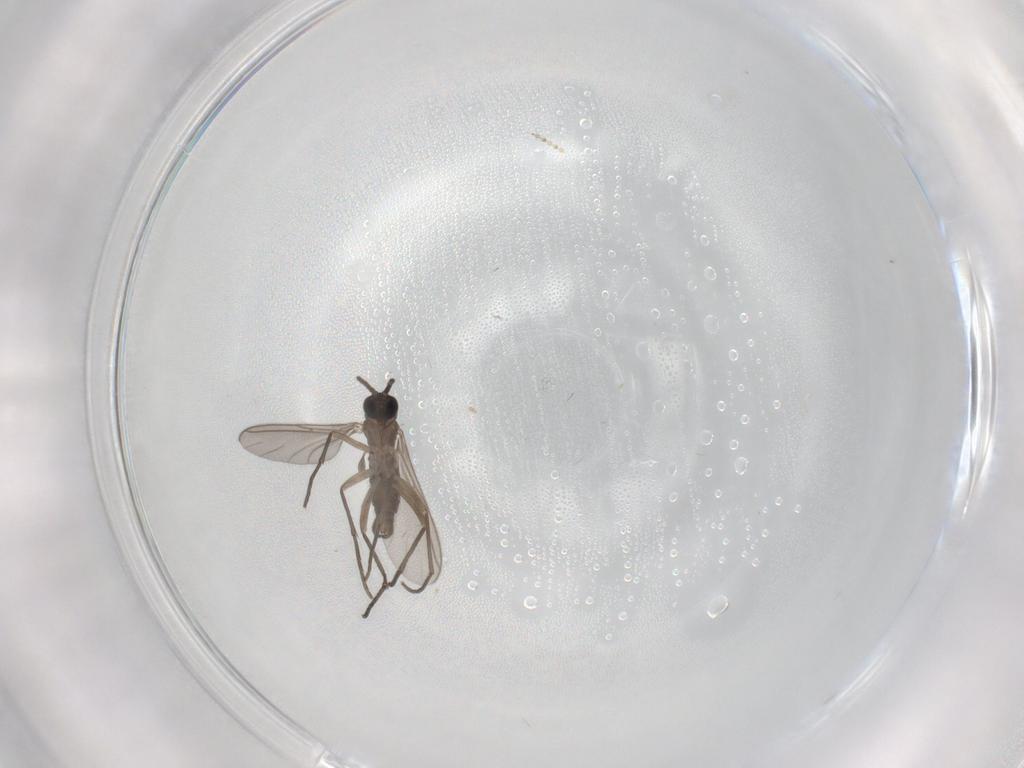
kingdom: Animalia
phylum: Arthropoda
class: Insecta
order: Diptera
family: Sciaridae
